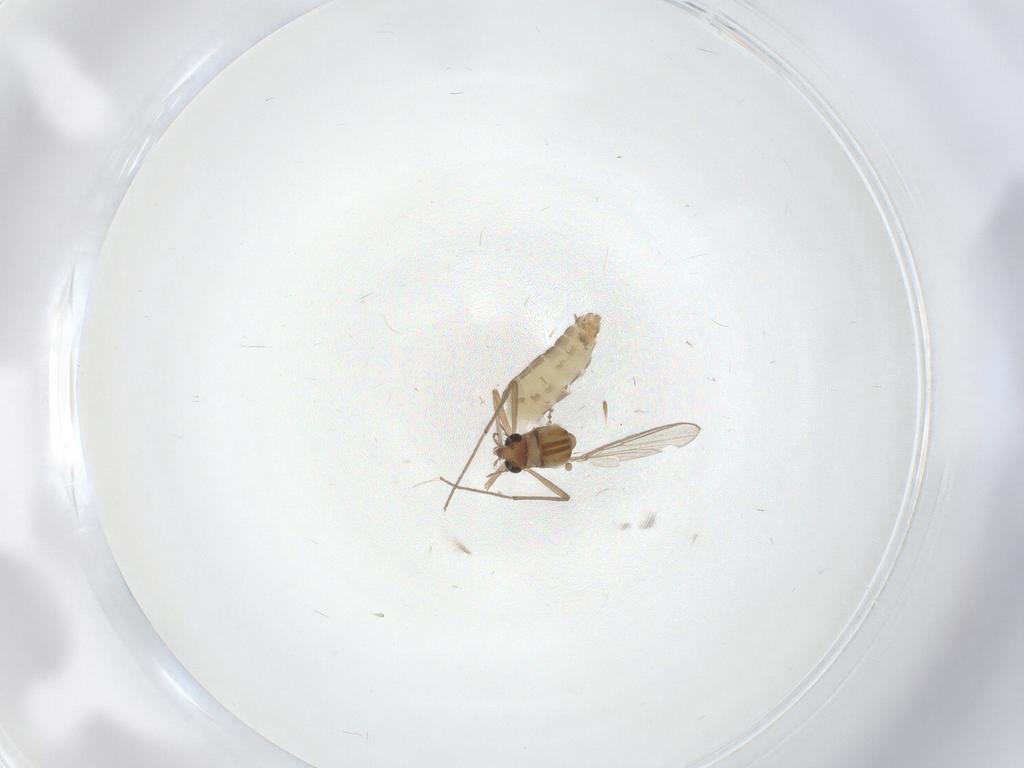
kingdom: Animalia
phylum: Arthropoda
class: Insecta
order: Diptera
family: Chironomidae
